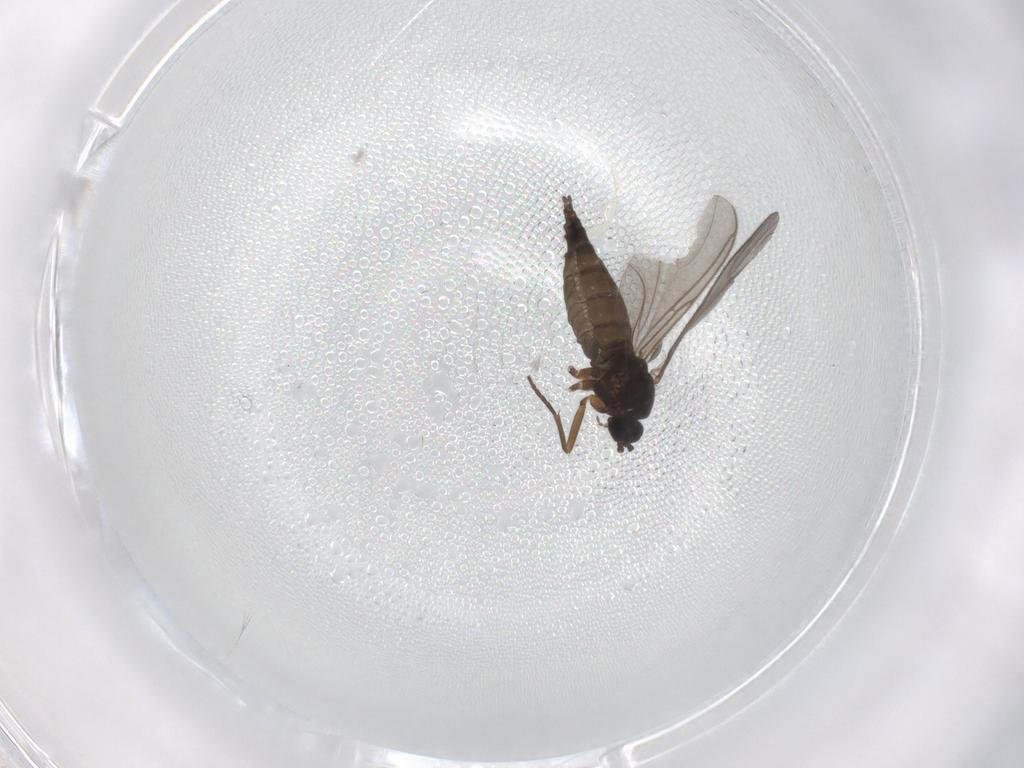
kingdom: Animalia
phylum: Arthropoda
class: Insecta
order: Diptera
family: Sciaridae
